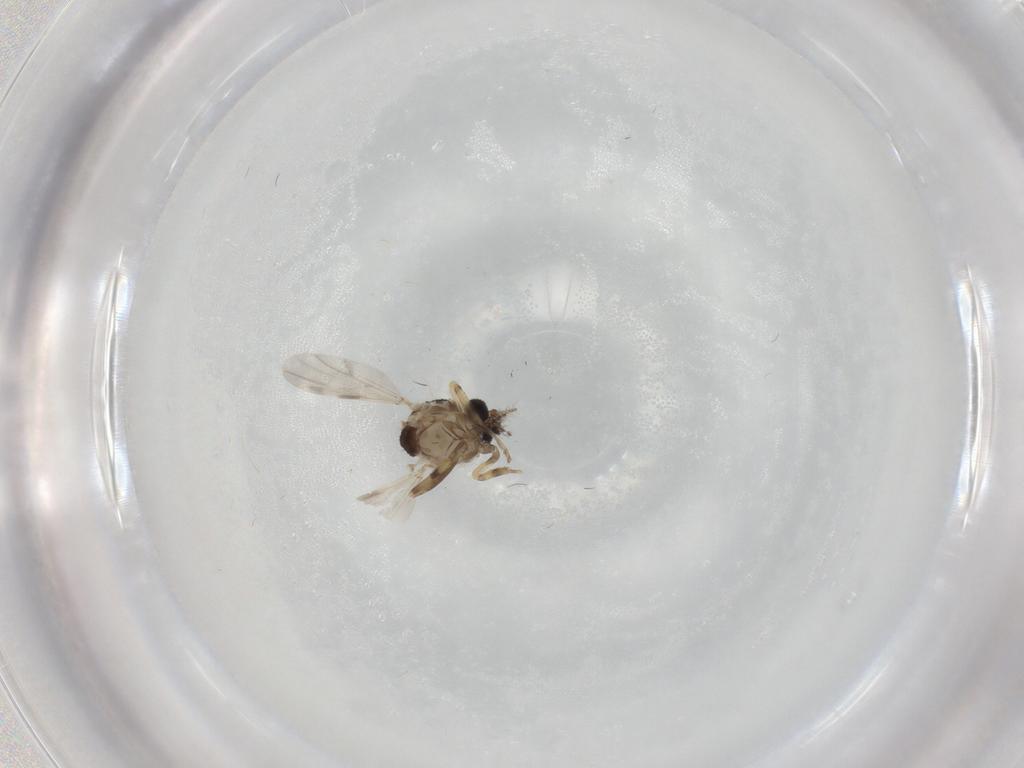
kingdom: Animalia
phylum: Arthropoda
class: Insecta
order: Diptera
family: Ceratopogonidae
